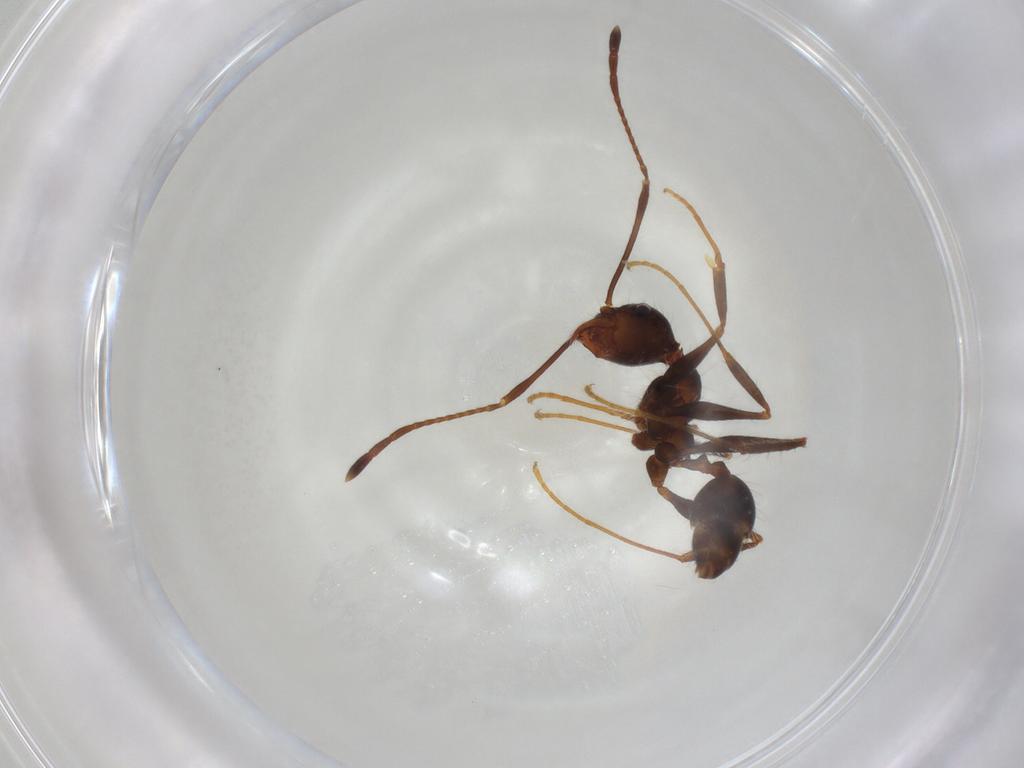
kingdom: Animalia
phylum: Arthropoda
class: Insecta
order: Hymenoptera
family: Formicidae
